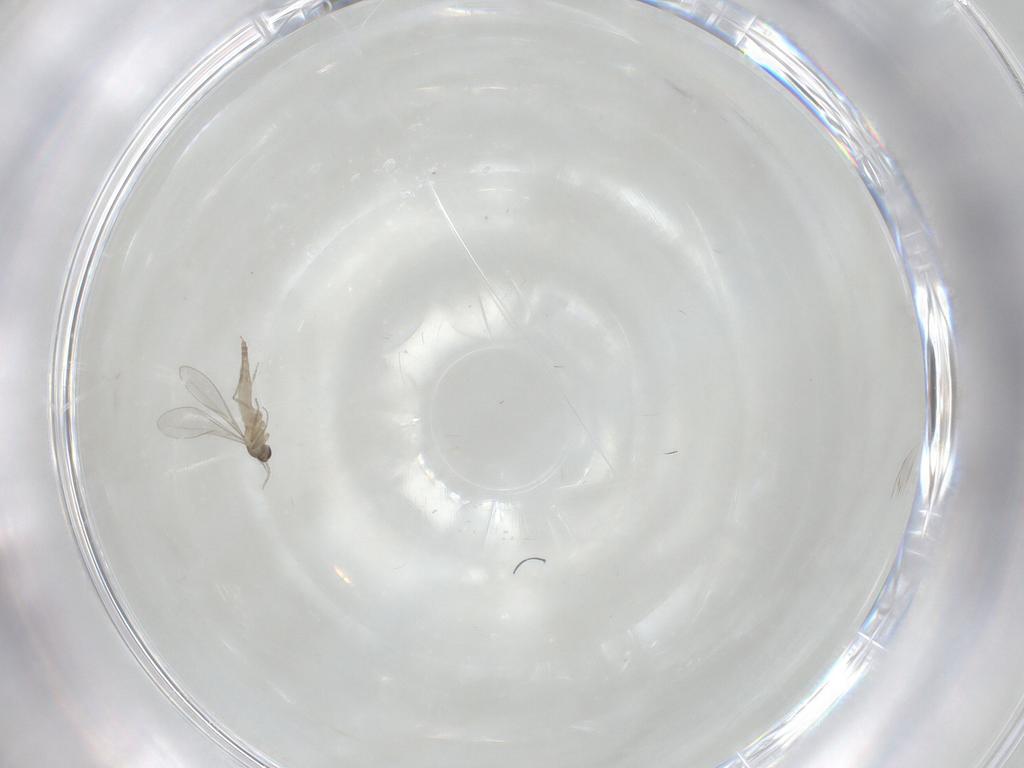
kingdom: Animalia
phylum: Arthropoda
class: Insecta
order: Diptera
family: Cecidomyiidae
